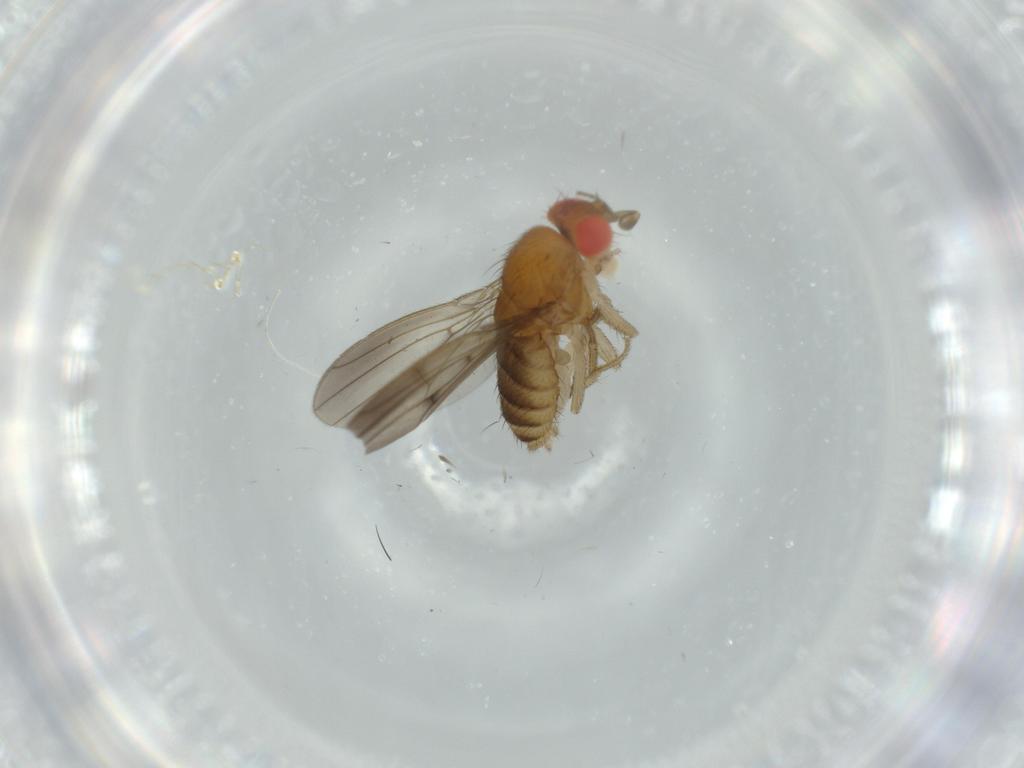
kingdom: Animalia
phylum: Arthropoda
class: Insecta
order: Diptera
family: Drosophilidae
